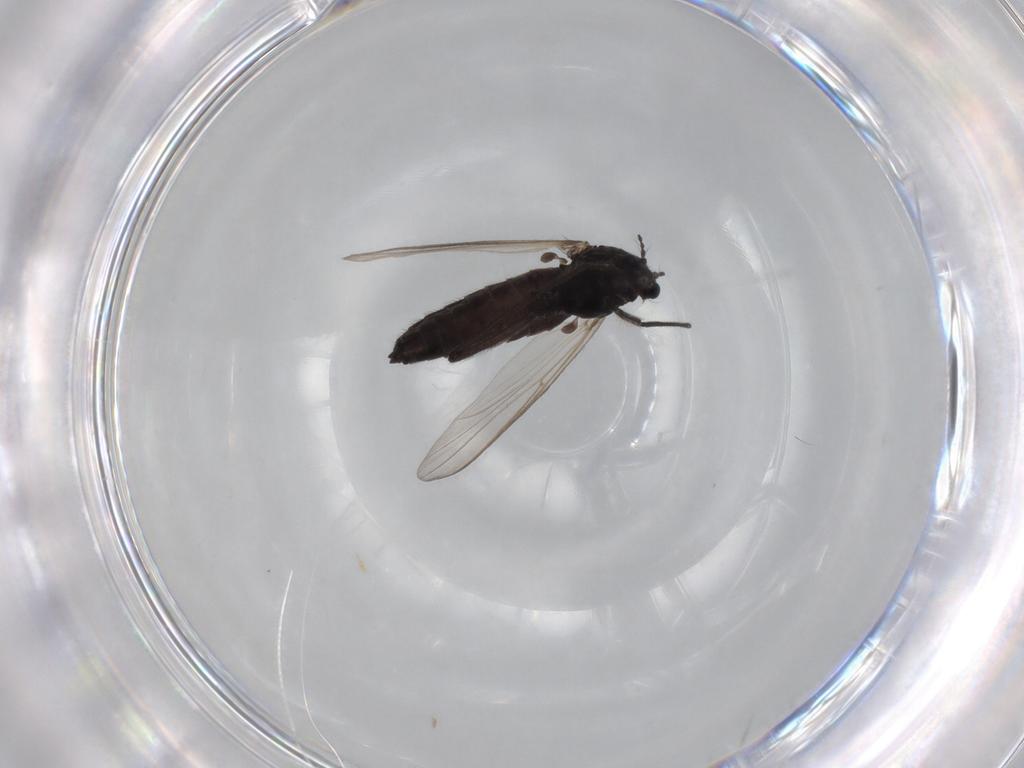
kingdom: Animalia
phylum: Arthropoda
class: Insecta
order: Diptera
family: Chironomidae
